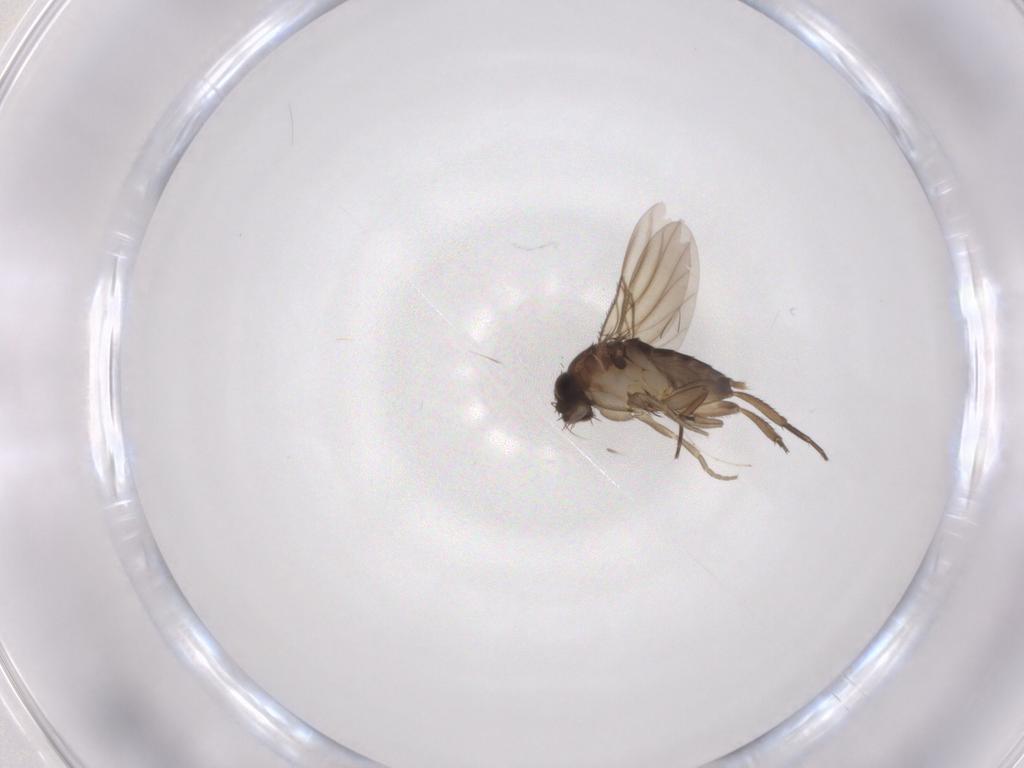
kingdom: Animalia
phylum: Arthropoda
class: Insecta
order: Diptera
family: Phoridae
